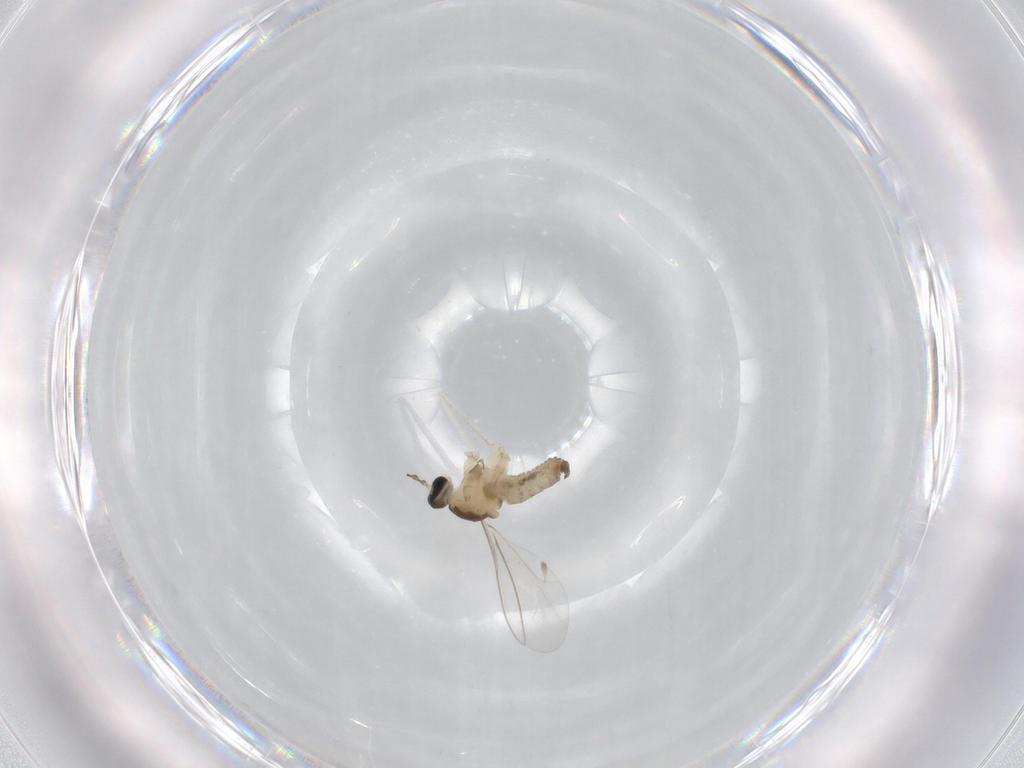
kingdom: Animalia
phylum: Arthropoda
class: Insecta
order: Diptera
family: Cecidomyiidae
